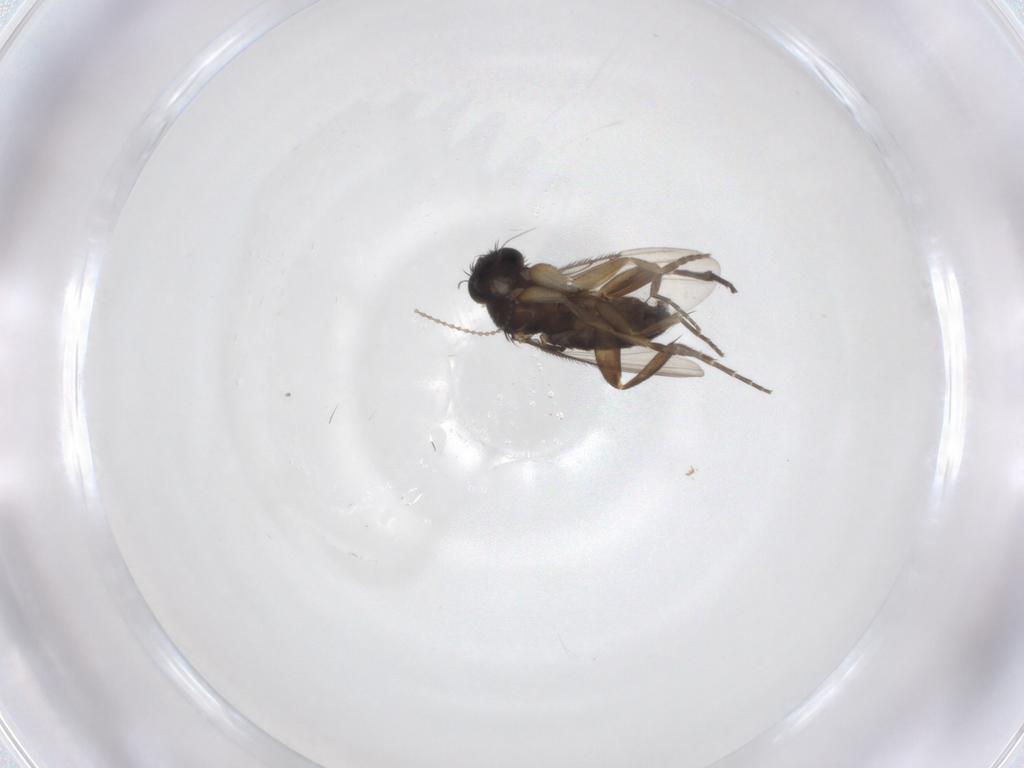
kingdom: Animalia
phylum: Arthropoda
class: Insecta
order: Diptera
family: Phoridae
